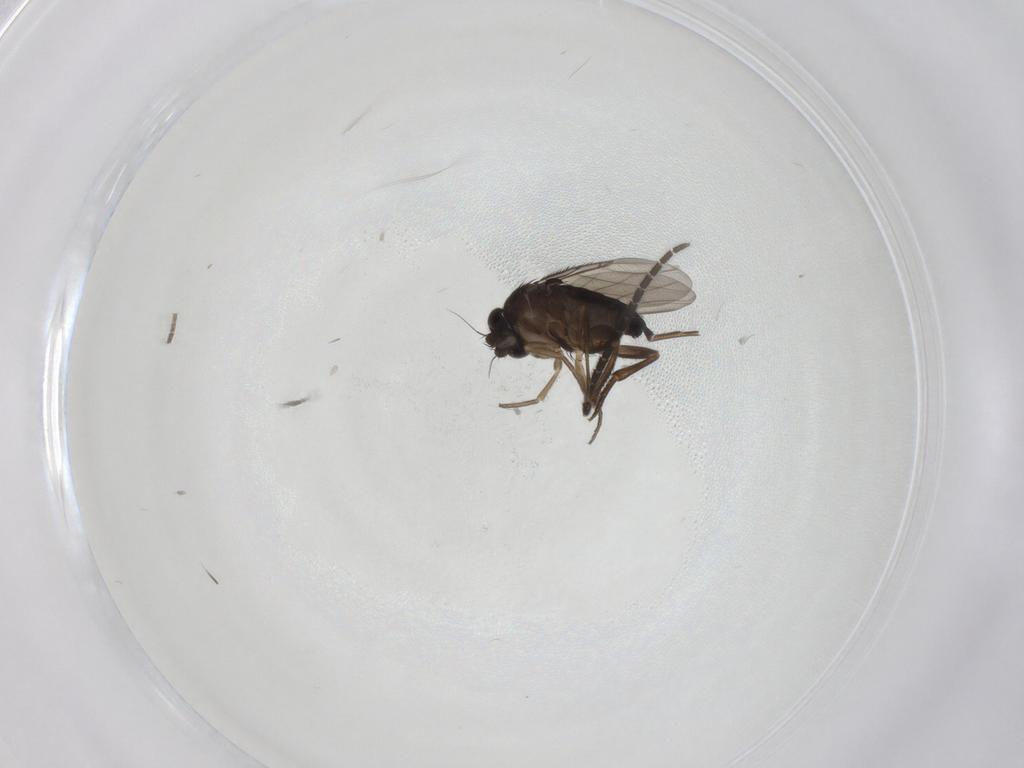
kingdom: Animalia
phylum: Arthropoda
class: Insecta
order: Diptera
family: Phoridae
